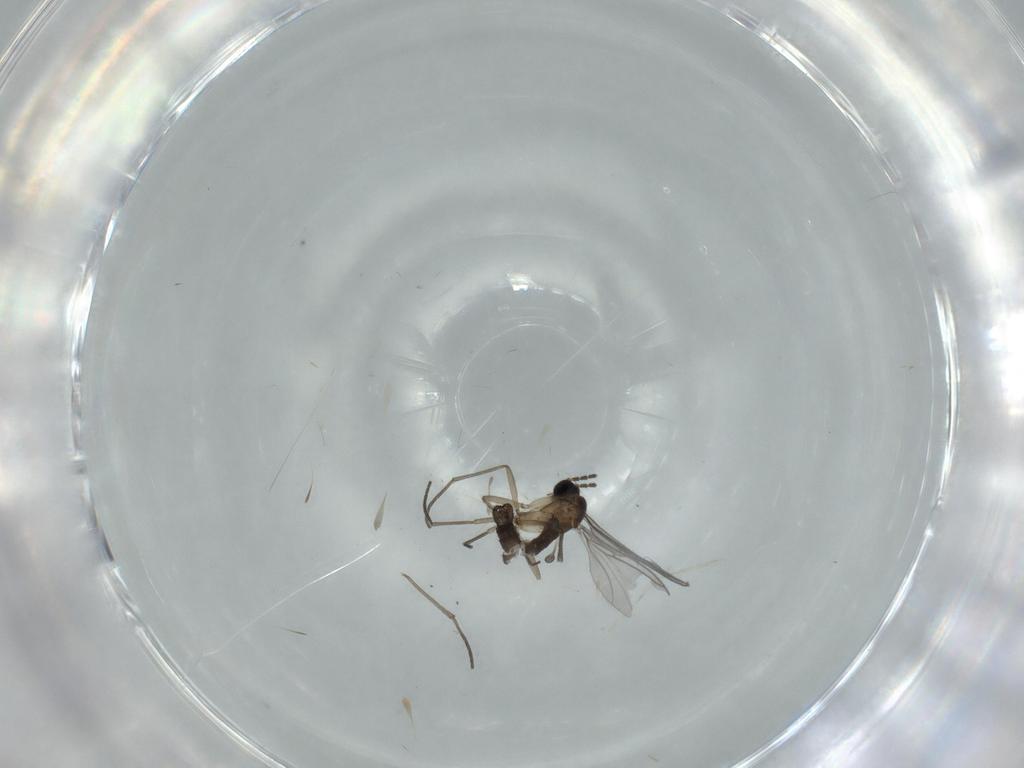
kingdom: Animalia
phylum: Arthropoda
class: Insecta
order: Diptera
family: Sciaridae
